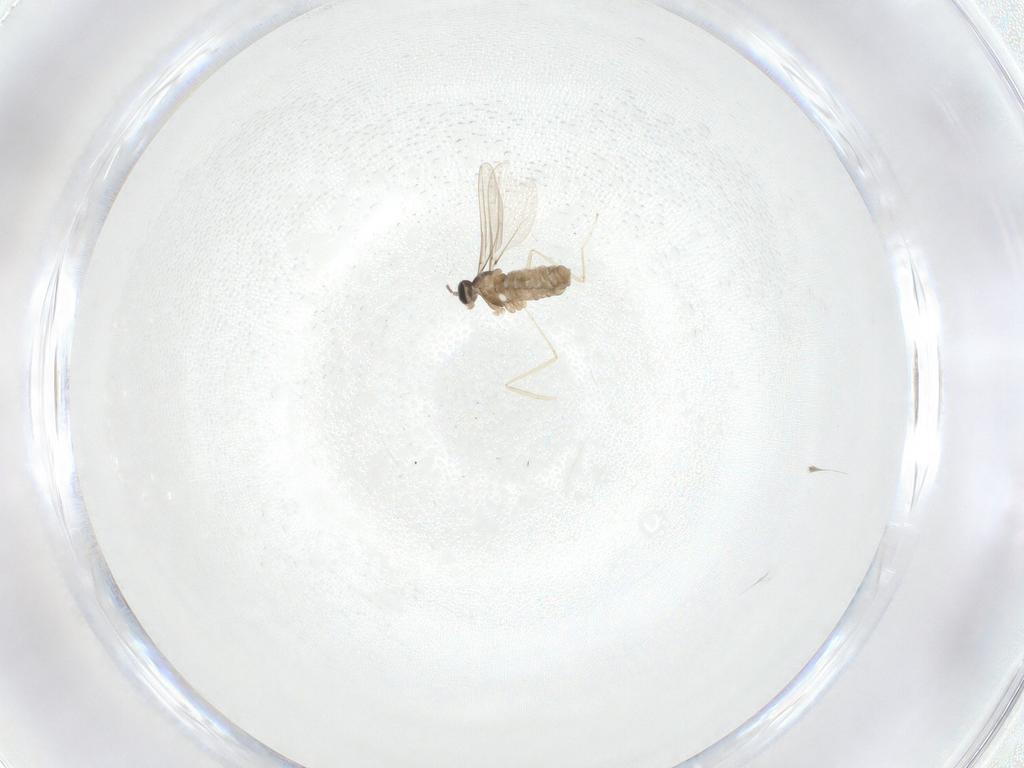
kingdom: Animalia
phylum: Arthropoda
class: Insecta
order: Diptera
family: Cecidomyiidae
